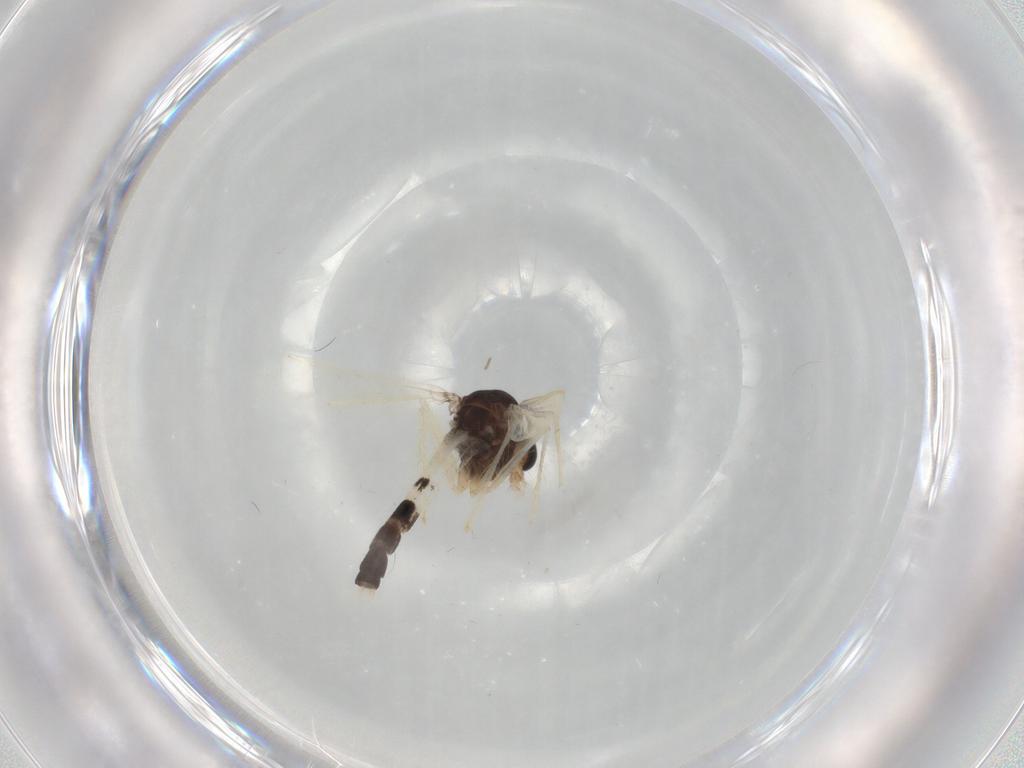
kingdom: Animalia
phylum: Arthropoda
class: Insecta
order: Diptera
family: Chironomidae
